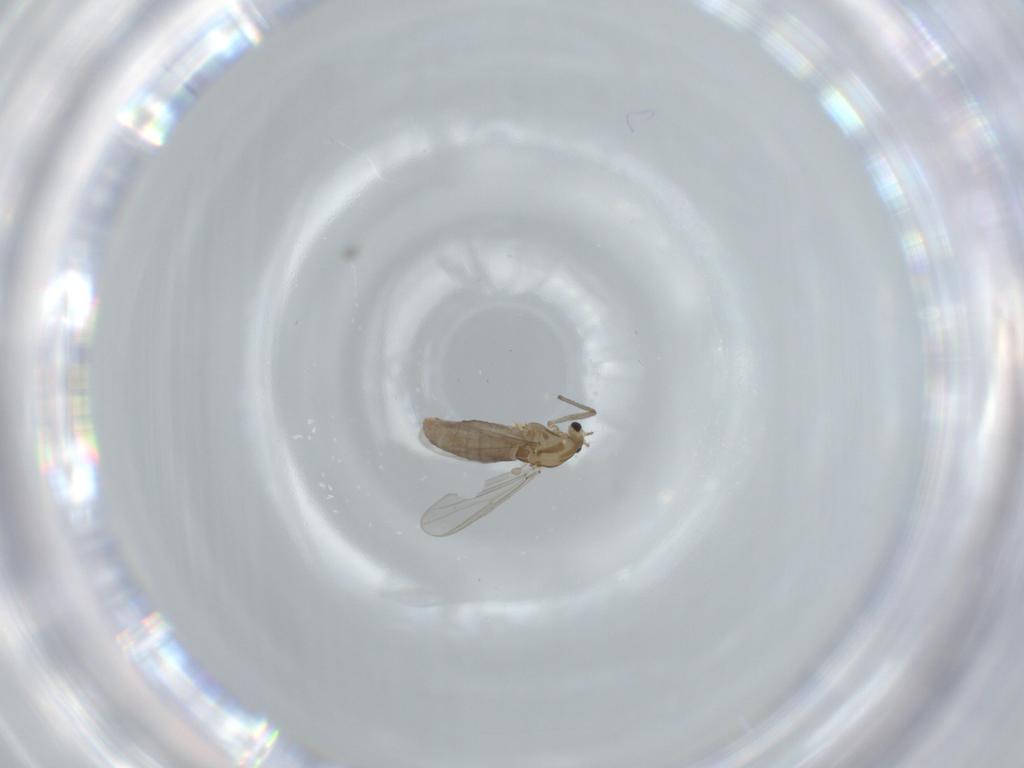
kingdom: Animalia
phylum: Arthropoda
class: Insecta
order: Diptera
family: Chironomidae
